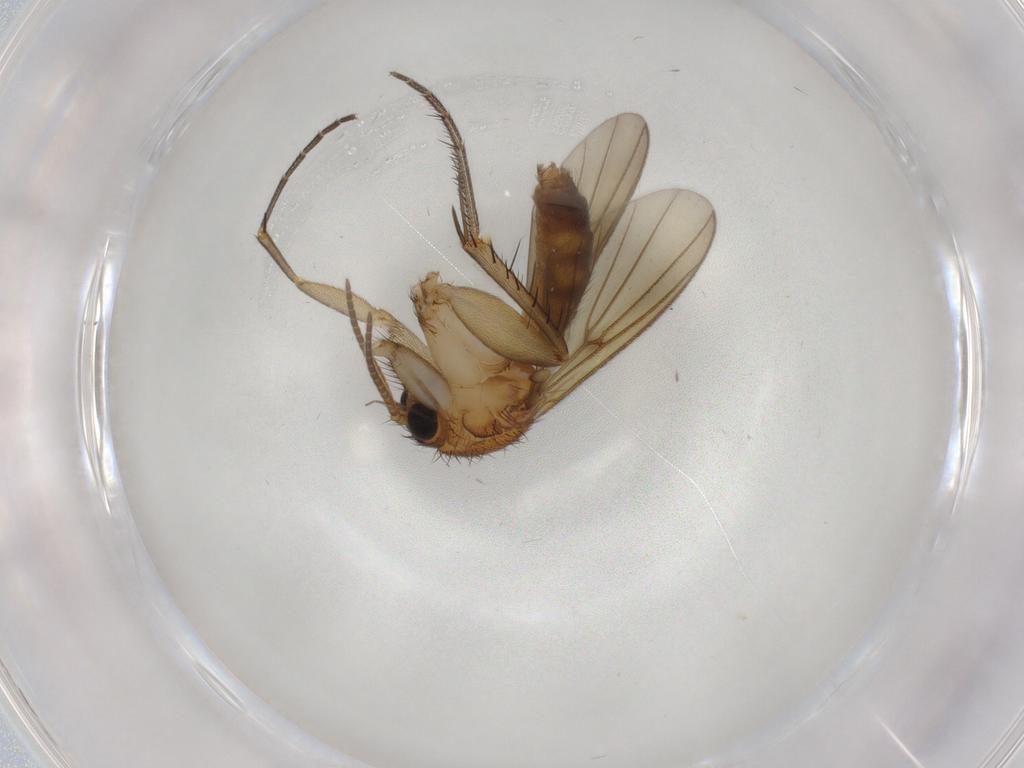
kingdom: Animalia
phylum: Arthropoda
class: Insecta
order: Diptera
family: Mycetophilidae
